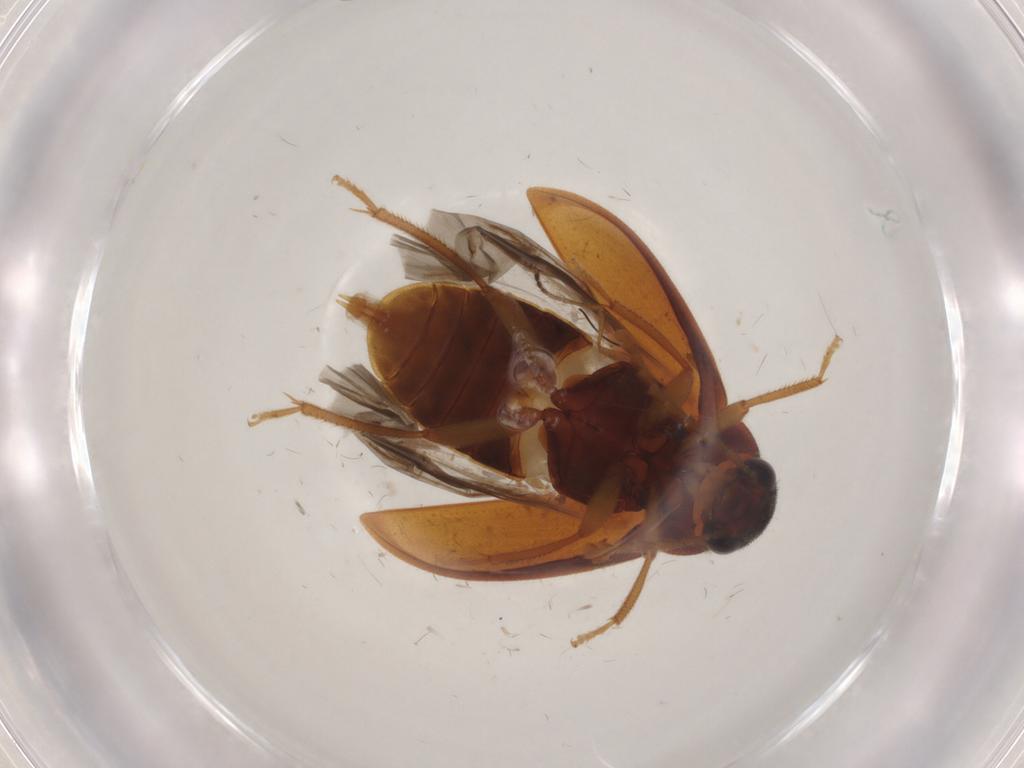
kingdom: Animalia
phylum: Arthropoda
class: Insecta
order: Coleoptera
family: Ptilodactylidae
